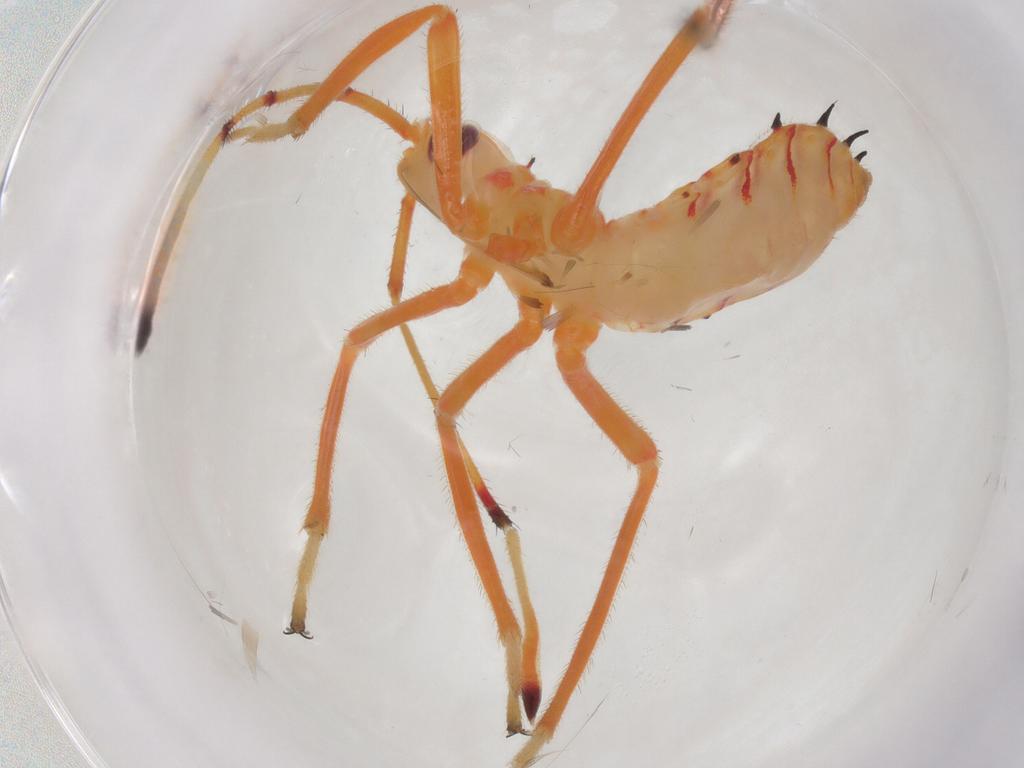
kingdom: Animalia
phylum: Arthropoda
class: Insecta
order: Hemiptera
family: Coreidae
